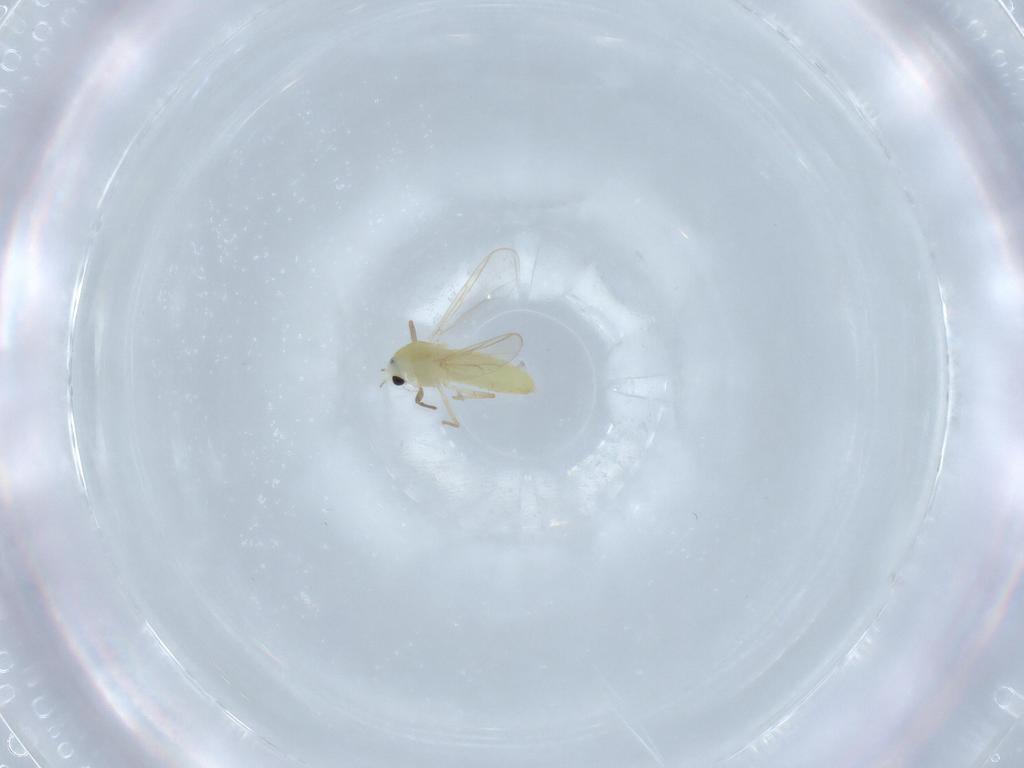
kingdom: Animalia
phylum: Arthropoda
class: Insecta
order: Diptera
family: Chironomidae
